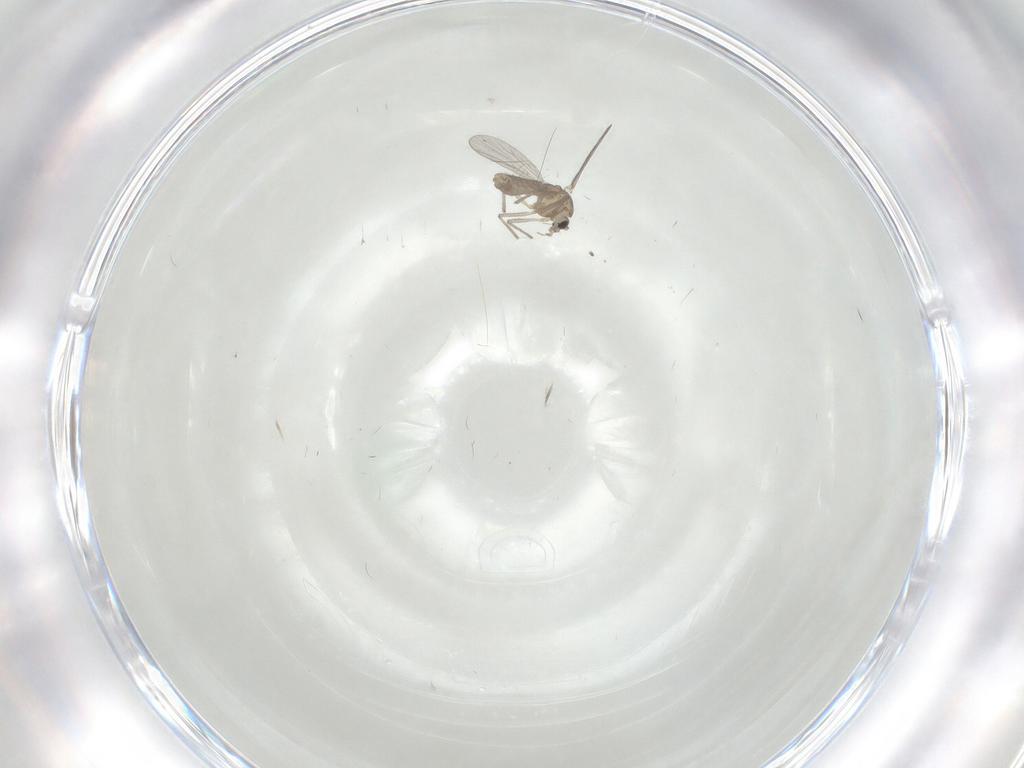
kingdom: Animalia
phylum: Arthropoda
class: Insecta
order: Diptera
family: Chironomidae
